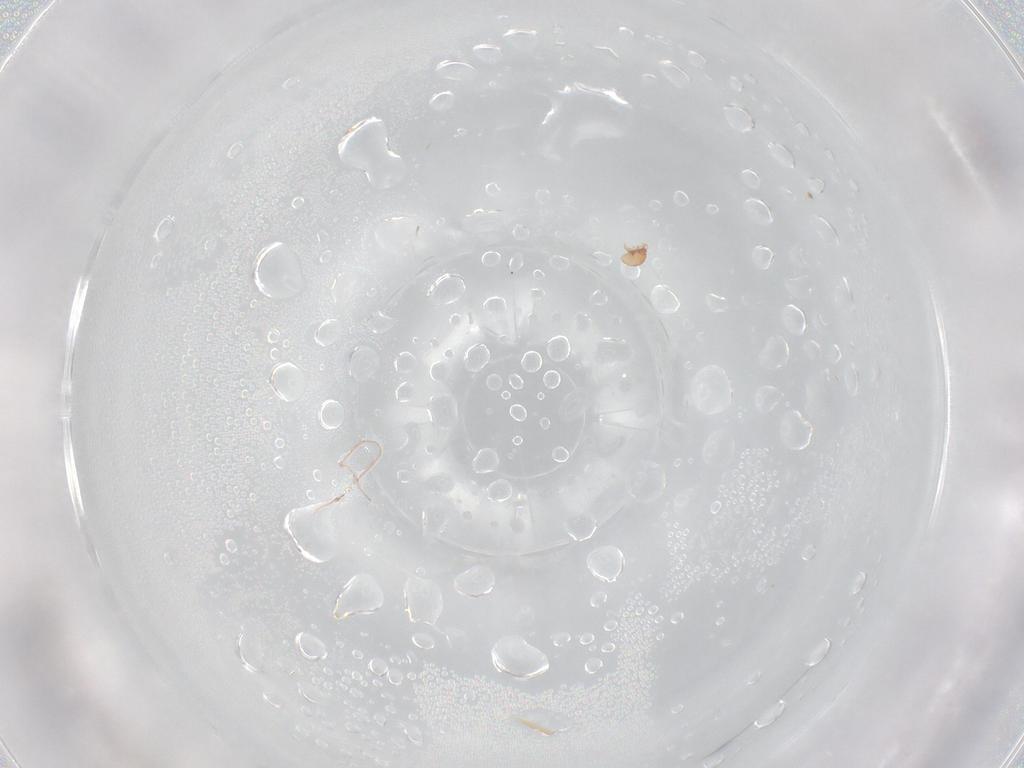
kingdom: Animalia
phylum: Arthropoda
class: Arachnida
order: Trombidiformes
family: Pygmephoridae
